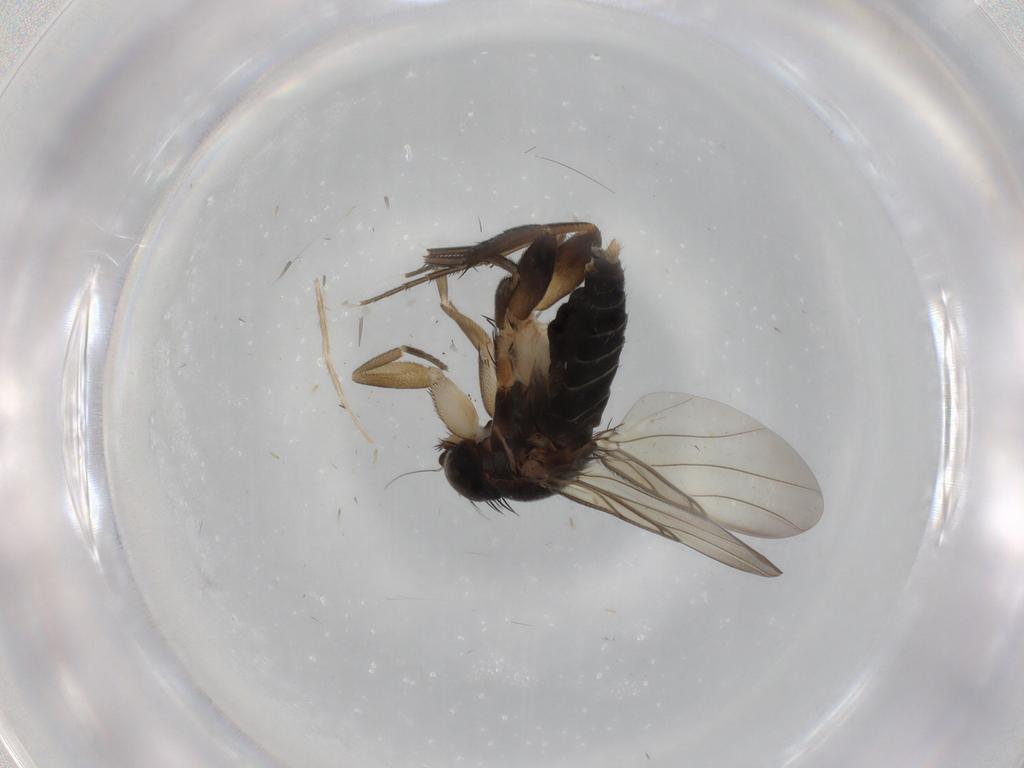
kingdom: Animalia
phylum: Arthropoda
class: Insecta
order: Diptera
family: Phoridae
